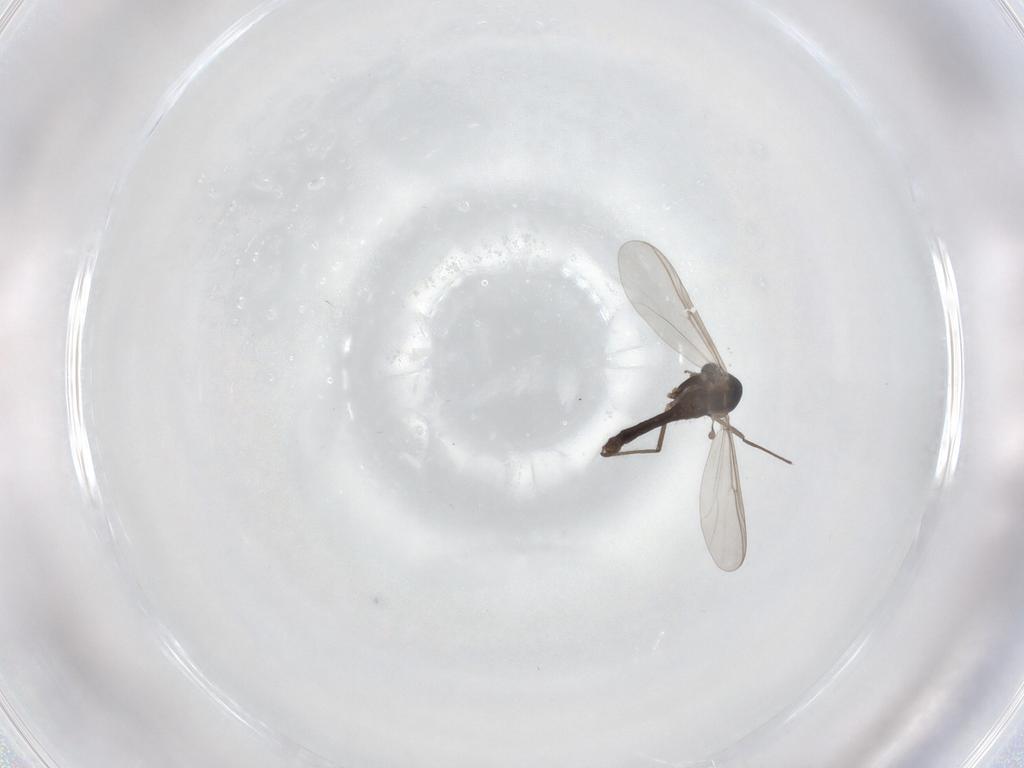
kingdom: Animalia
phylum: Arthropoda
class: Insecta
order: Diptera
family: Chironomidae
